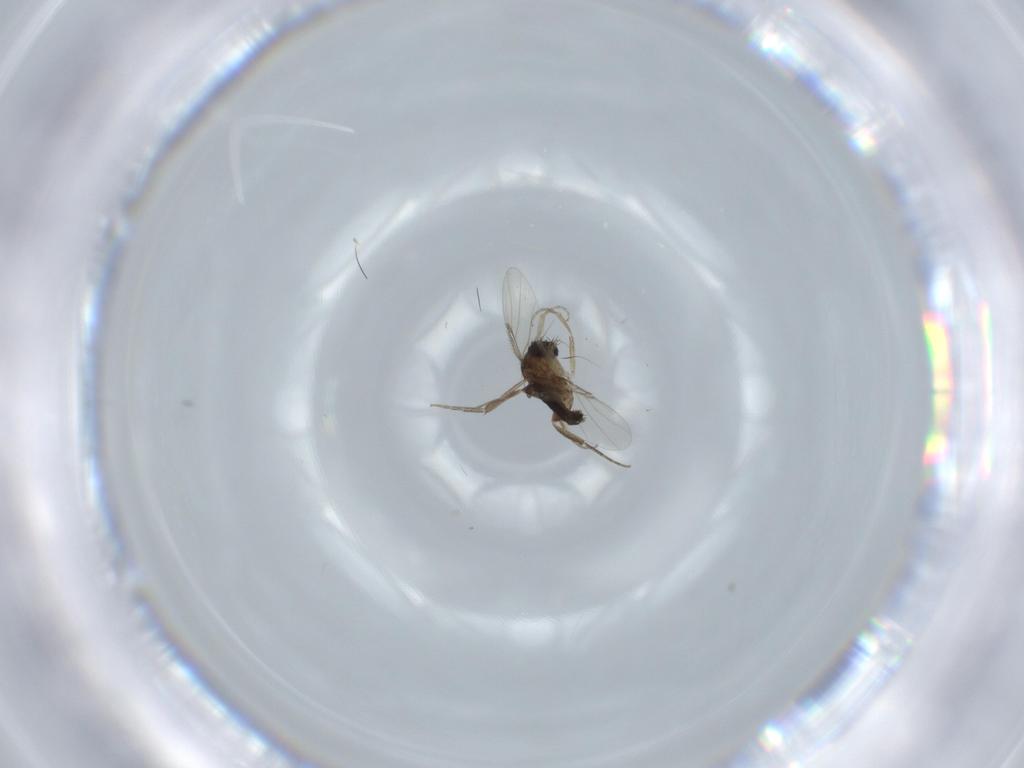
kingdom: Animalia
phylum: Arthropoda
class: Insecta
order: Diptera
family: Phoridae
